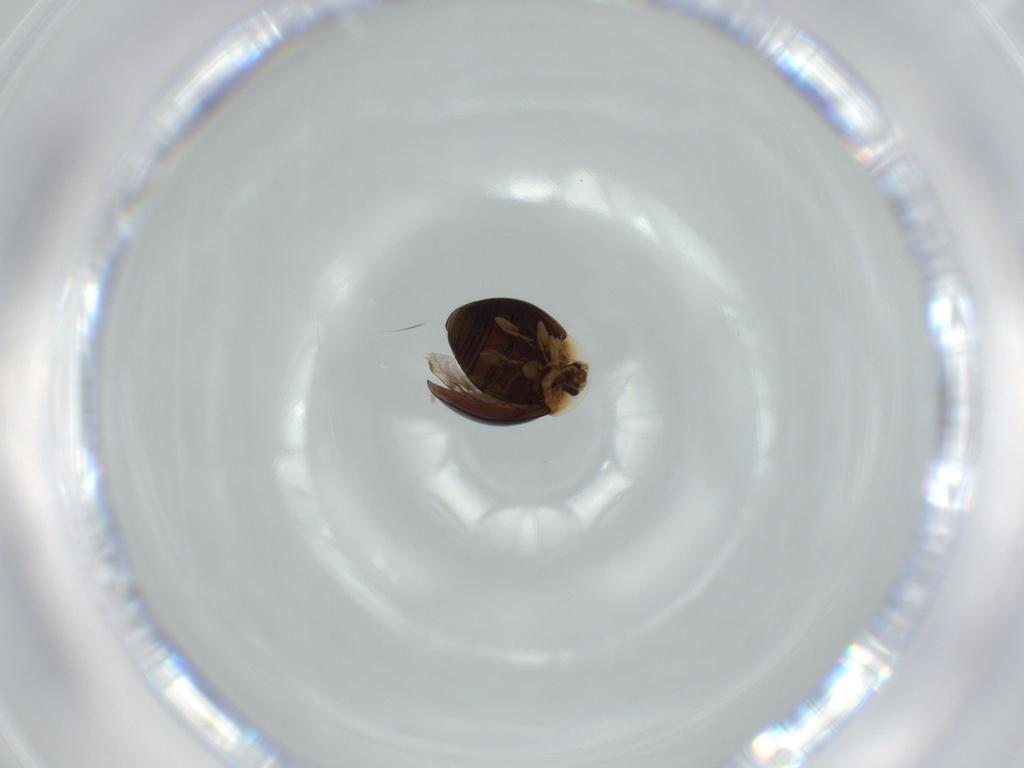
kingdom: Animalia
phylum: Arthropoda
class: Insecta
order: Coleoptera
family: Corylophidae
